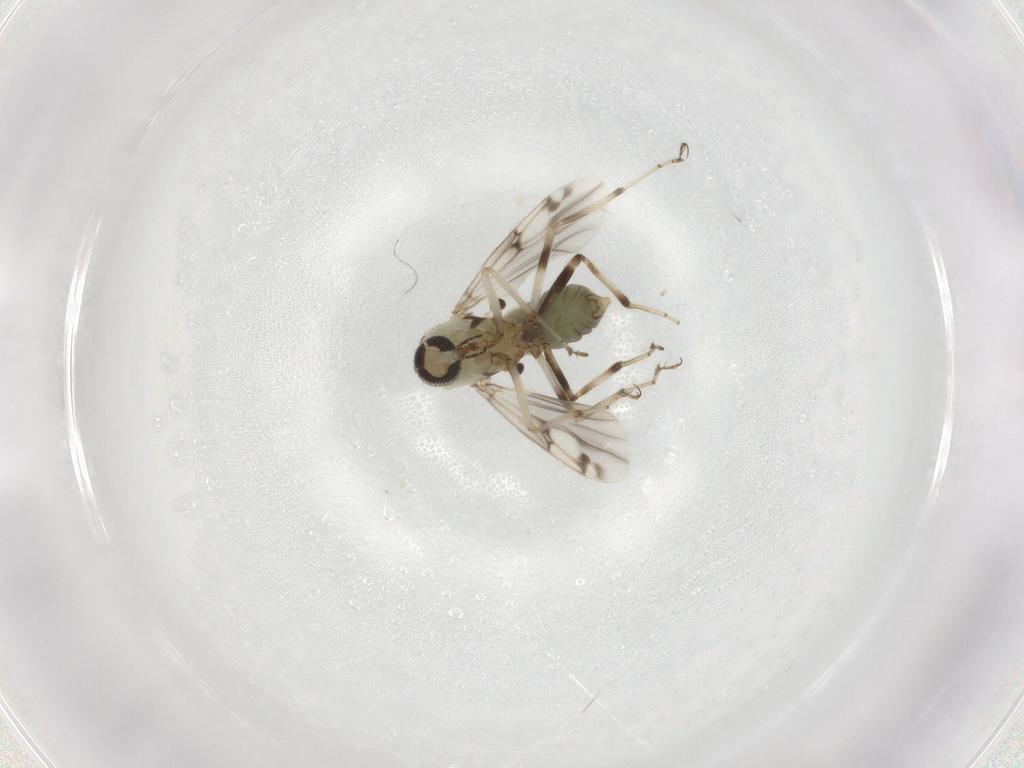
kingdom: Animalia
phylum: Arthropoda
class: Insecta
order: Diptera
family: Ceratopogonidae
